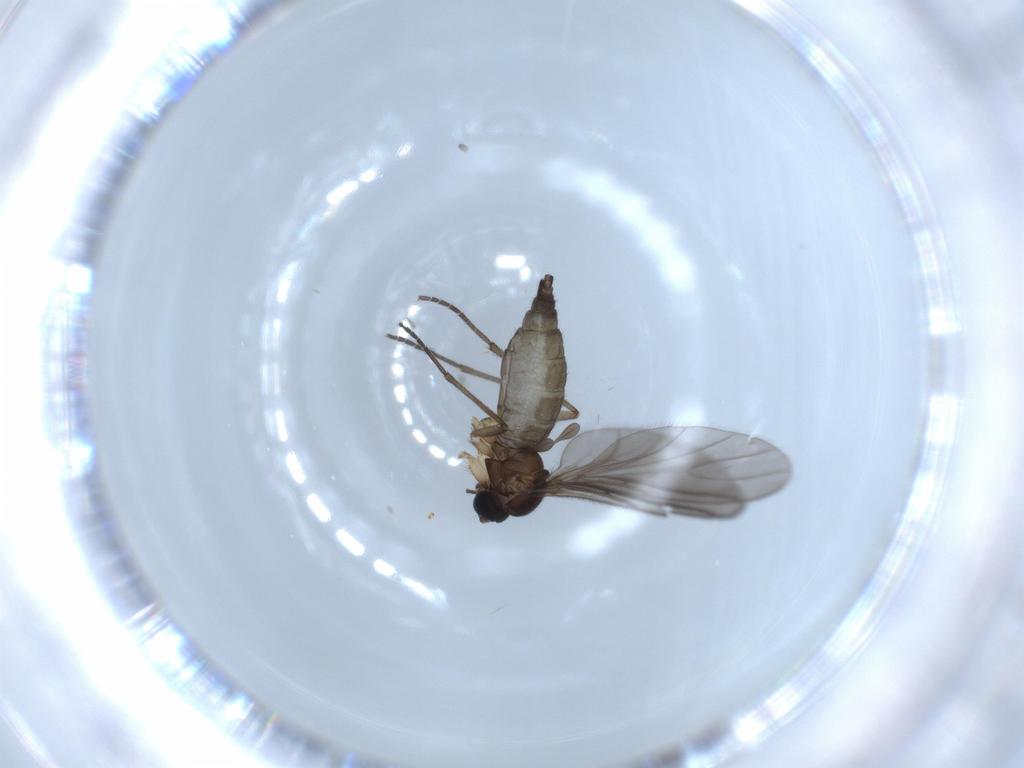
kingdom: Animalia
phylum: Arthropoda
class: Insecta
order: Diptera
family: Sciaridae
